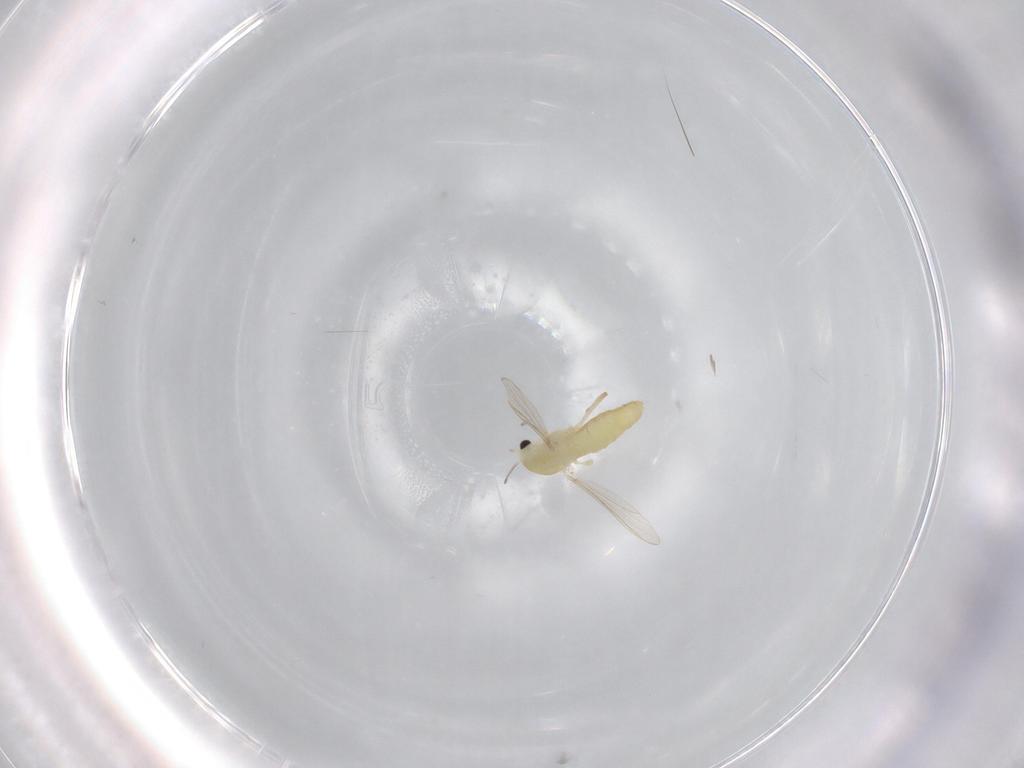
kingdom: Animalia
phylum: Arthropoda
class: Insecta
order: Diptera
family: Chironomidae
